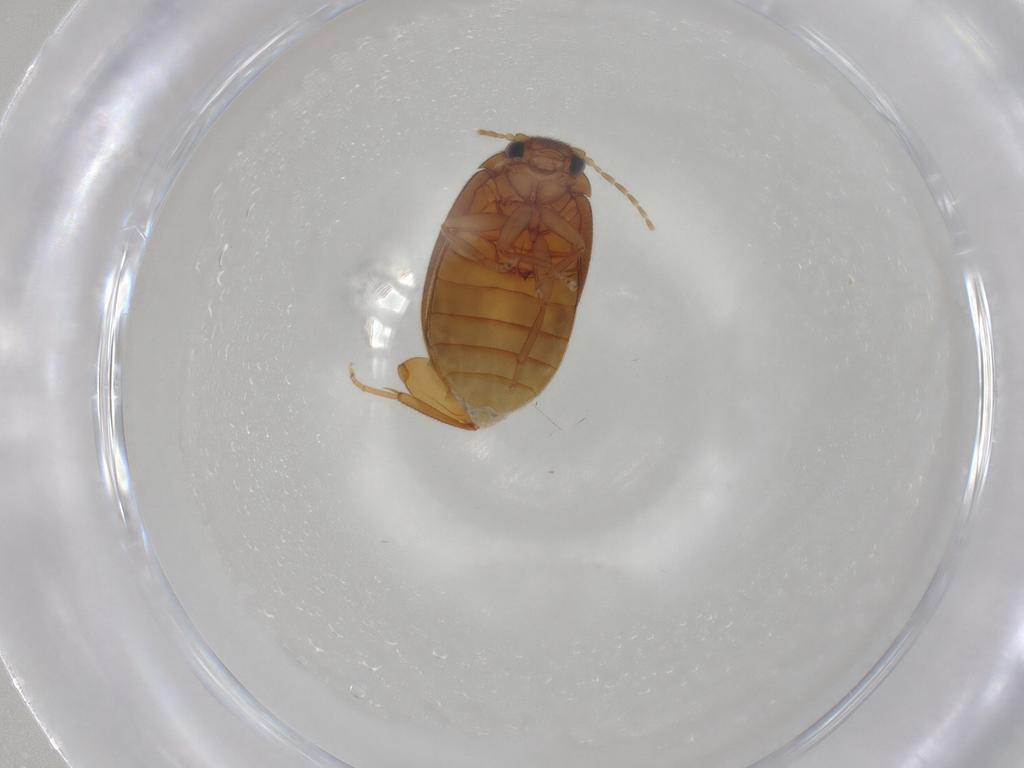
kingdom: Animalia
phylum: Arthropoda
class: Insecta
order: Coleoptera
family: Scirtidae
